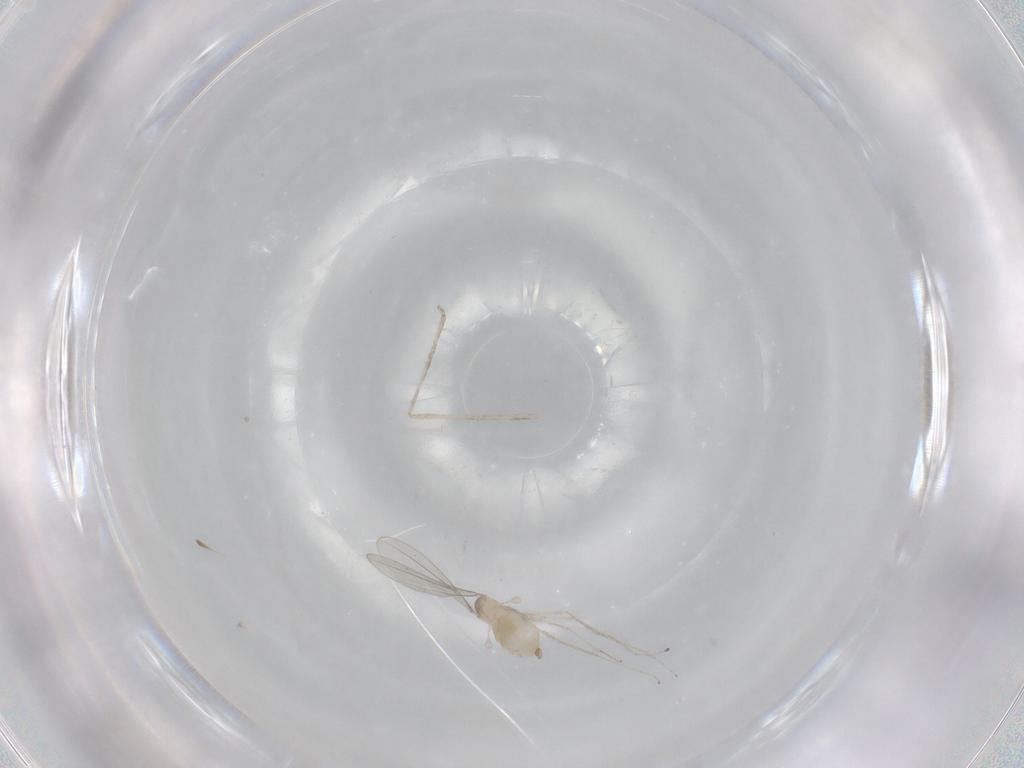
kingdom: Animalia
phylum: Arthropoda
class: Insecta
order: Diptera
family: Cecidomyiidae
